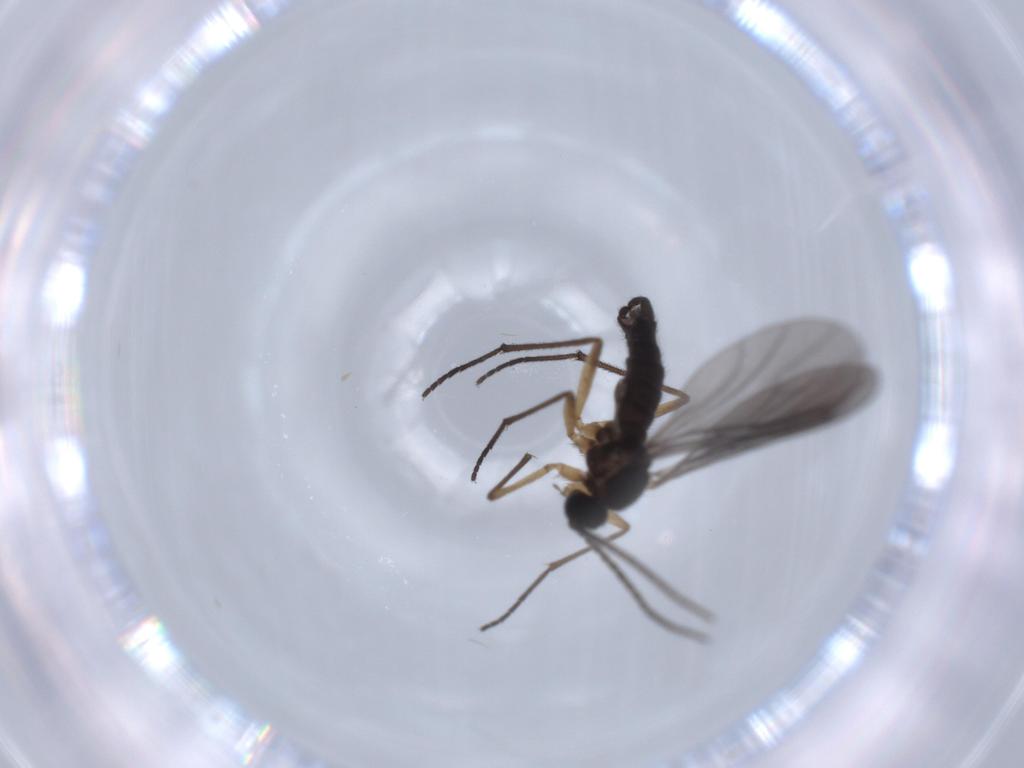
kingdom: Animalia
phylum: Arthropoda
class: Insecta
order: Diptera
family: Sciaridae
